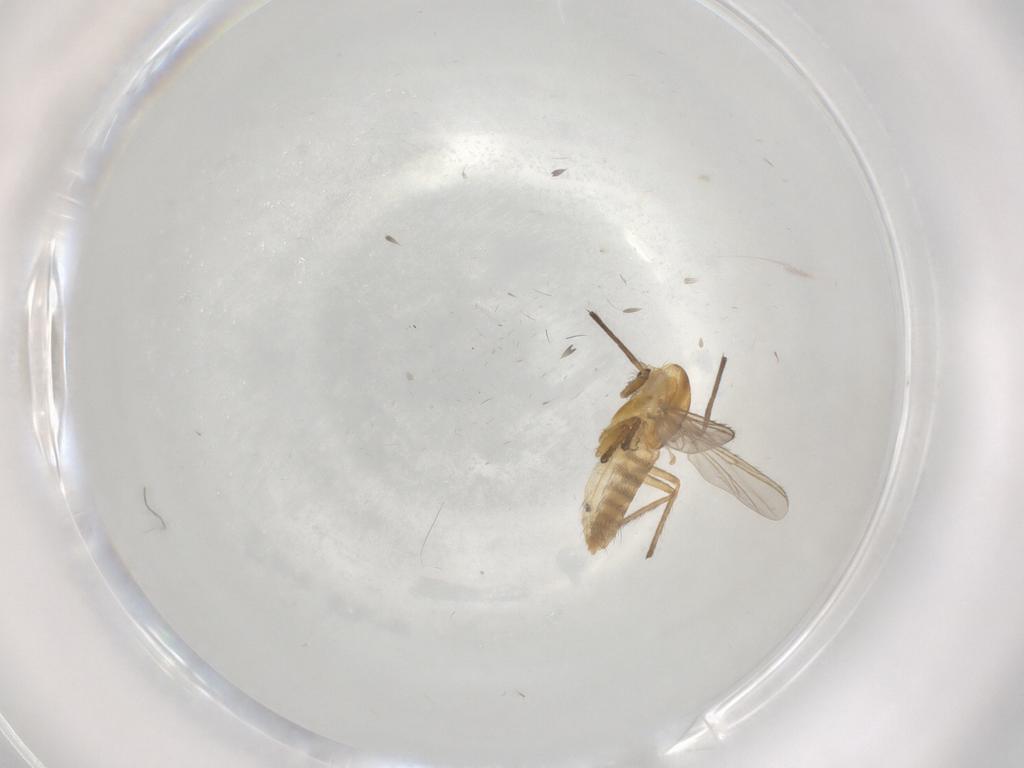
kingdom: Animalia
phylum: Arthropoda
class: Insecta
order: Diptera
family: Chironomidae
